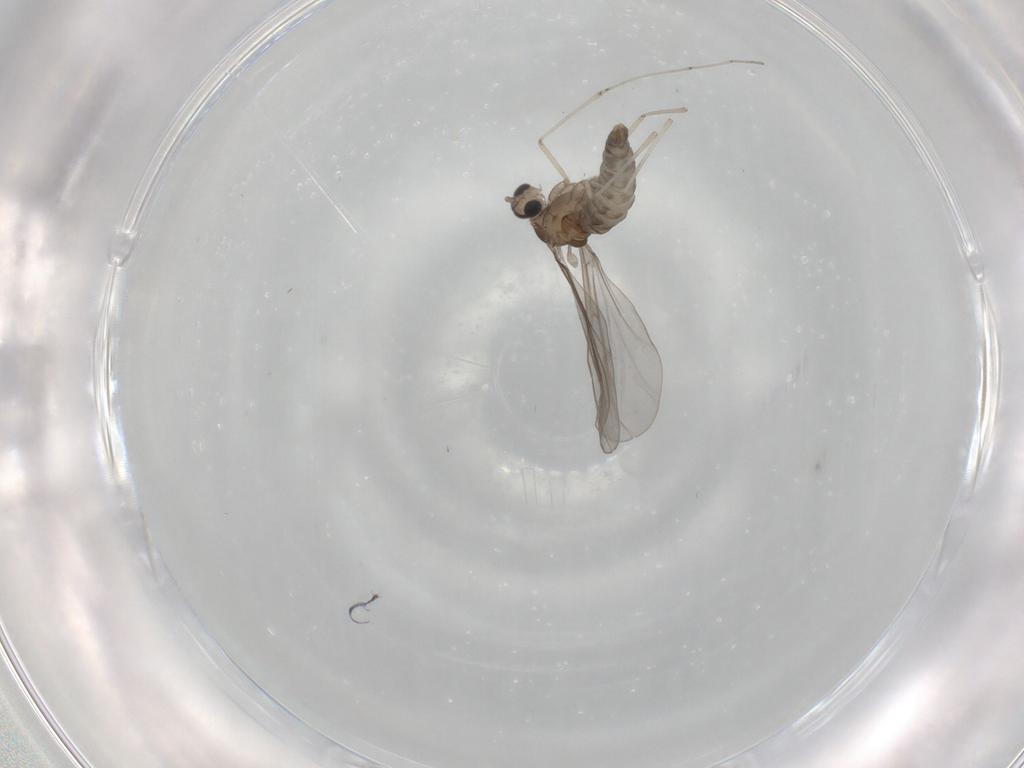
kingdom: Animalia
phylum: Arthropoda
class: Insecta
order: Diptera
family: Cecidomyiidae
